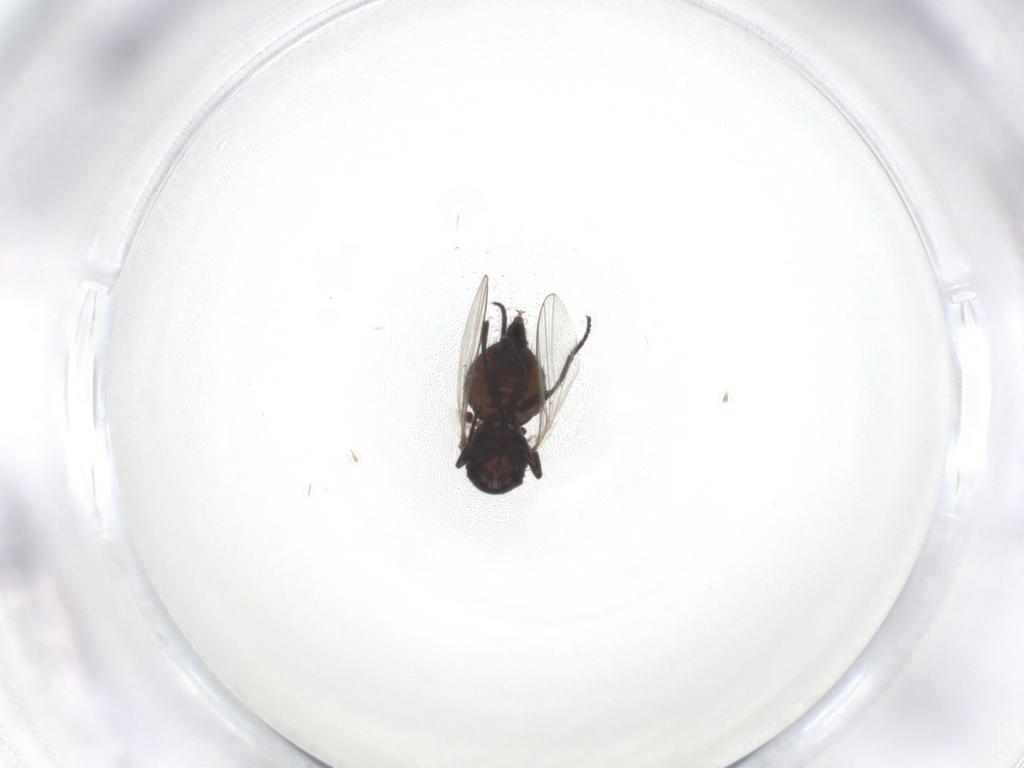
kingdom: Animalia
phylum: Arthropoda
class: Insecta
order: Diptera
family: Agromyzidae
